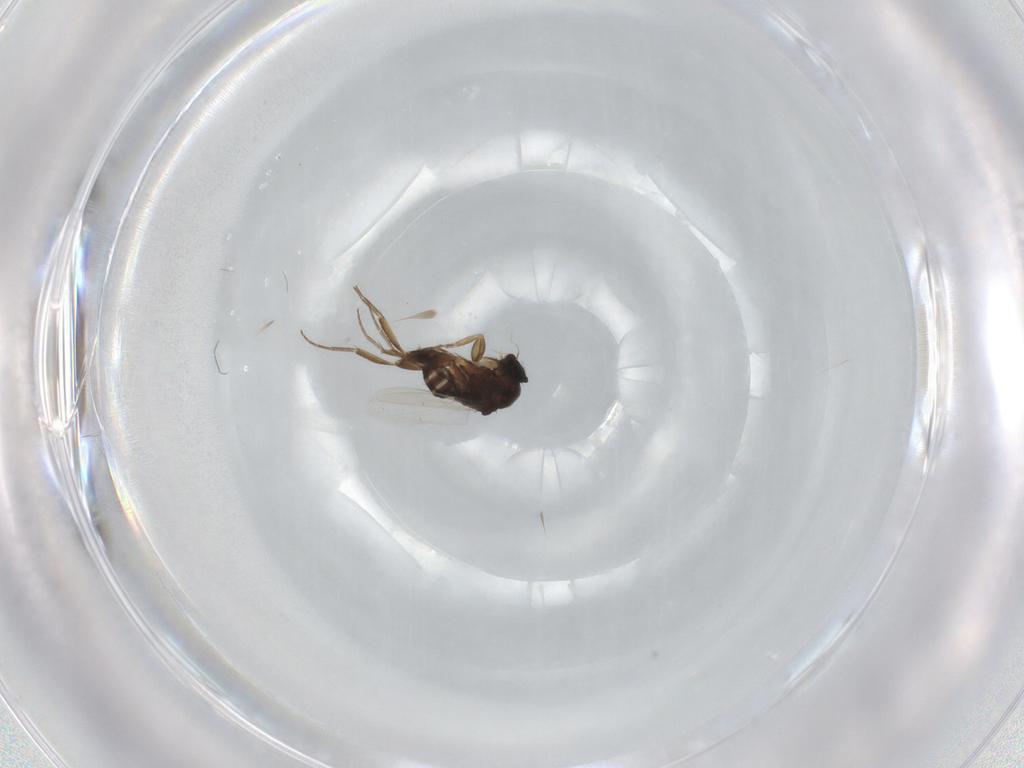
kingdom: Animalia
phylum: Arthropoda
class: Insecta
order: Diptera
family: Phoridae
